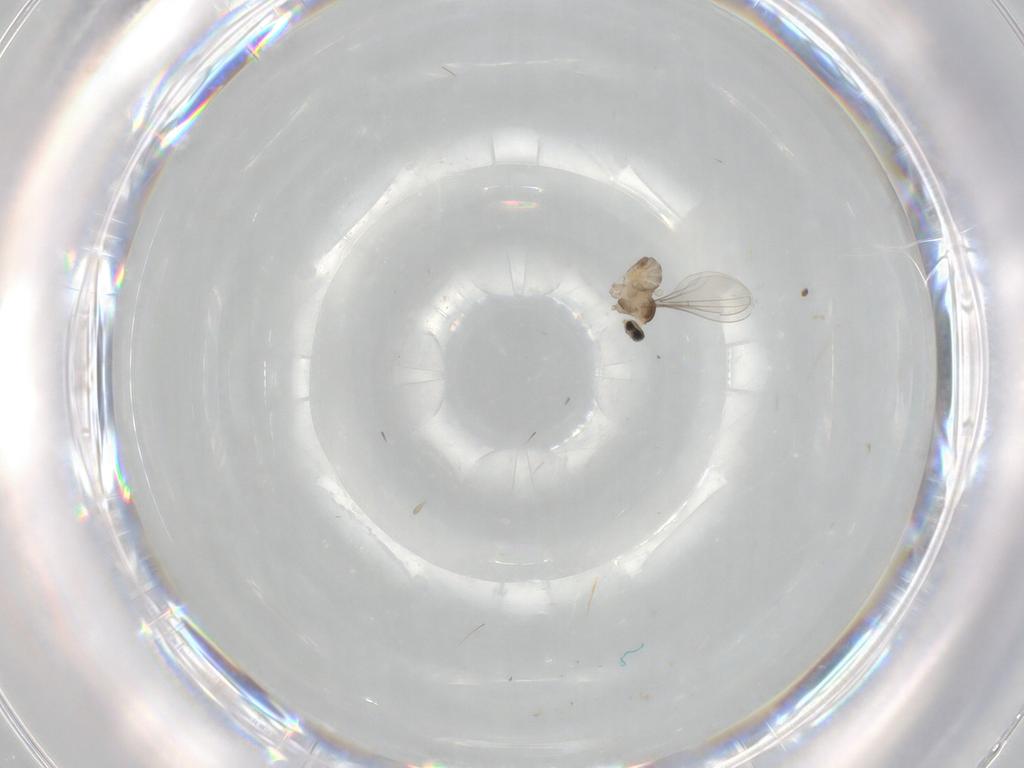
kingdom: Animalia
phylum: Arthropoda
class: Insecta
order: Diptera
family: Cecidomyiidae
